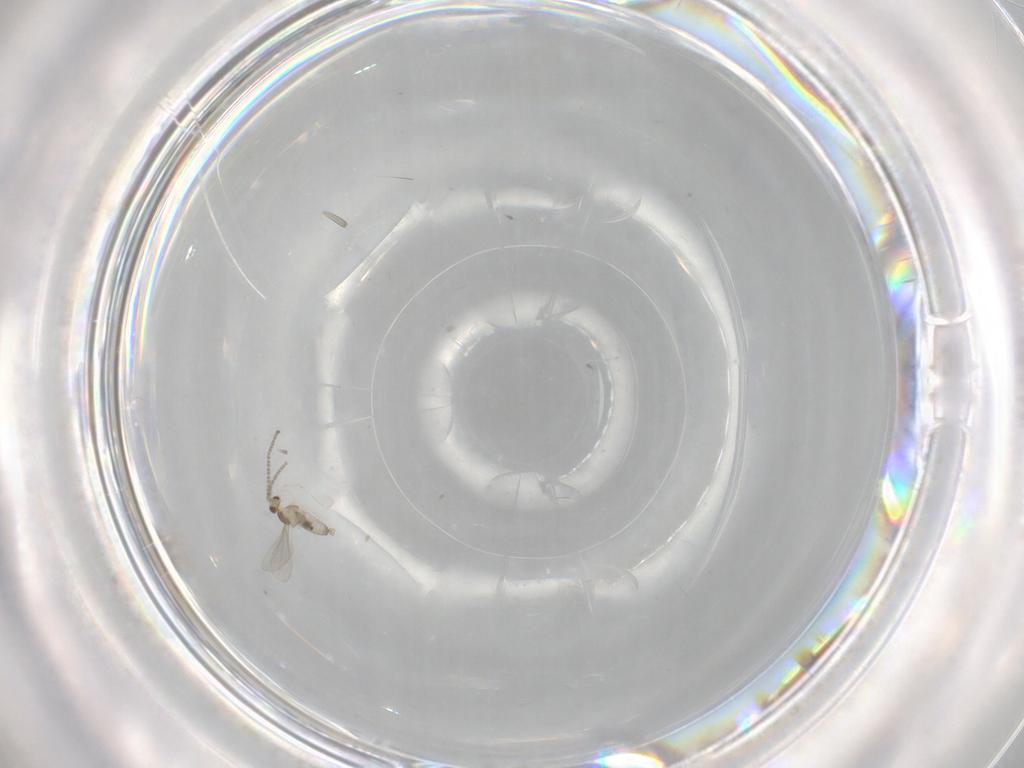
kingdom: Animalia
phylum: Arthropoda
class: Insecta
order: Diptera
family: Cecidomyiidae
